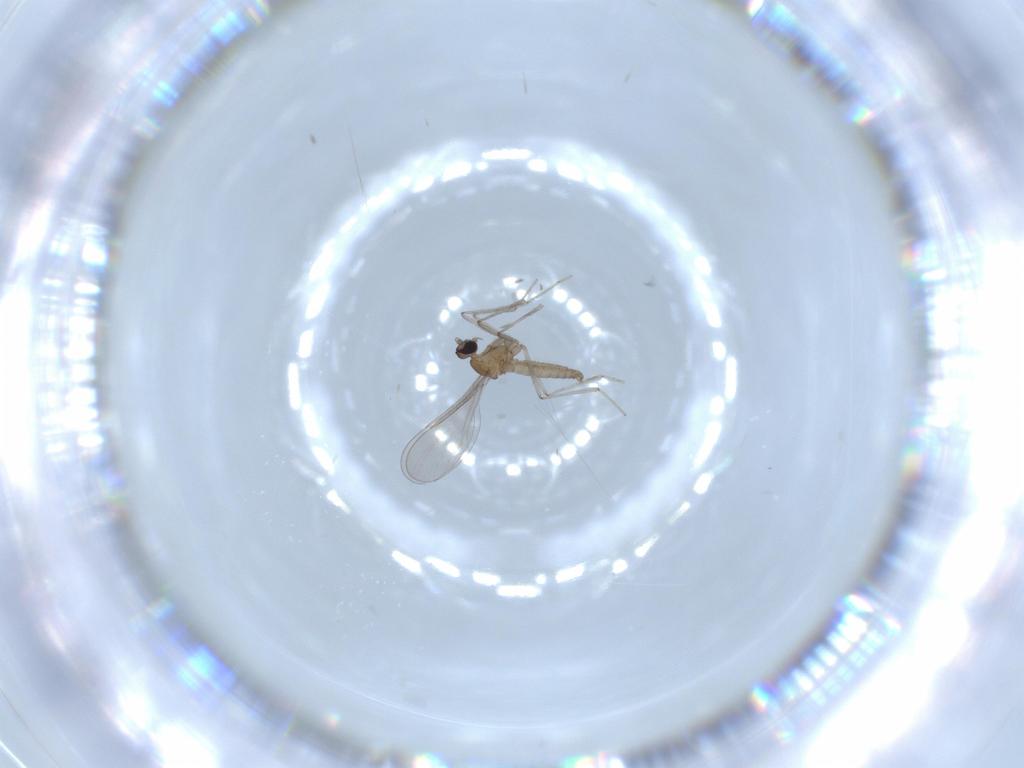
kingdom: Animalia
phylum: Arthropoda
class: Insecta
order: Diptera
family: Cecidomyiidae
